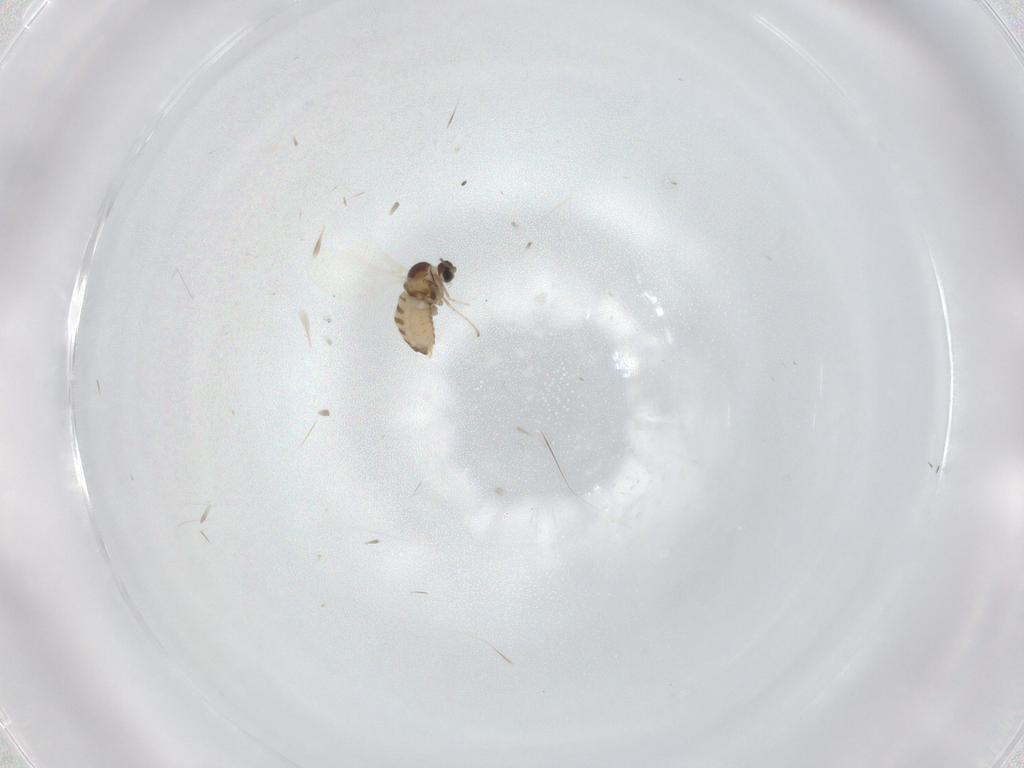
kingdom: Animalia
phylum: Arthropoda
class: Insecta
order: Diptera
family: Cecidomyiidae
